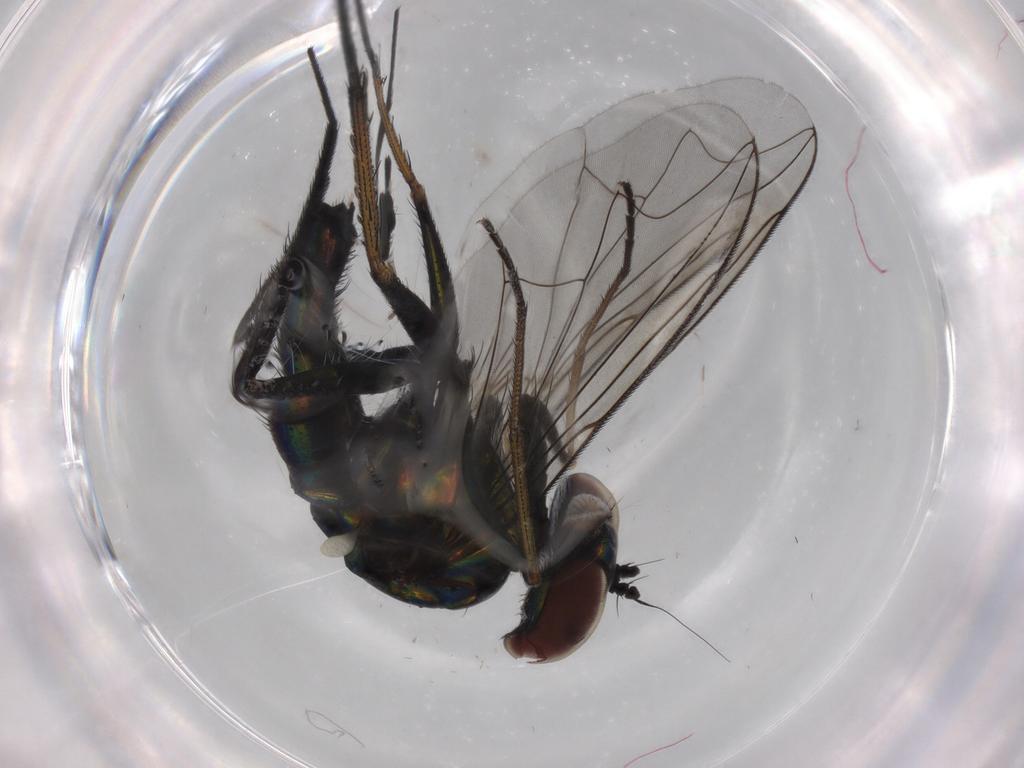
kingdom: Animalia
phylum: Arthropoda
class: Insecta
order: Diptera
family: Dolichopodidae
